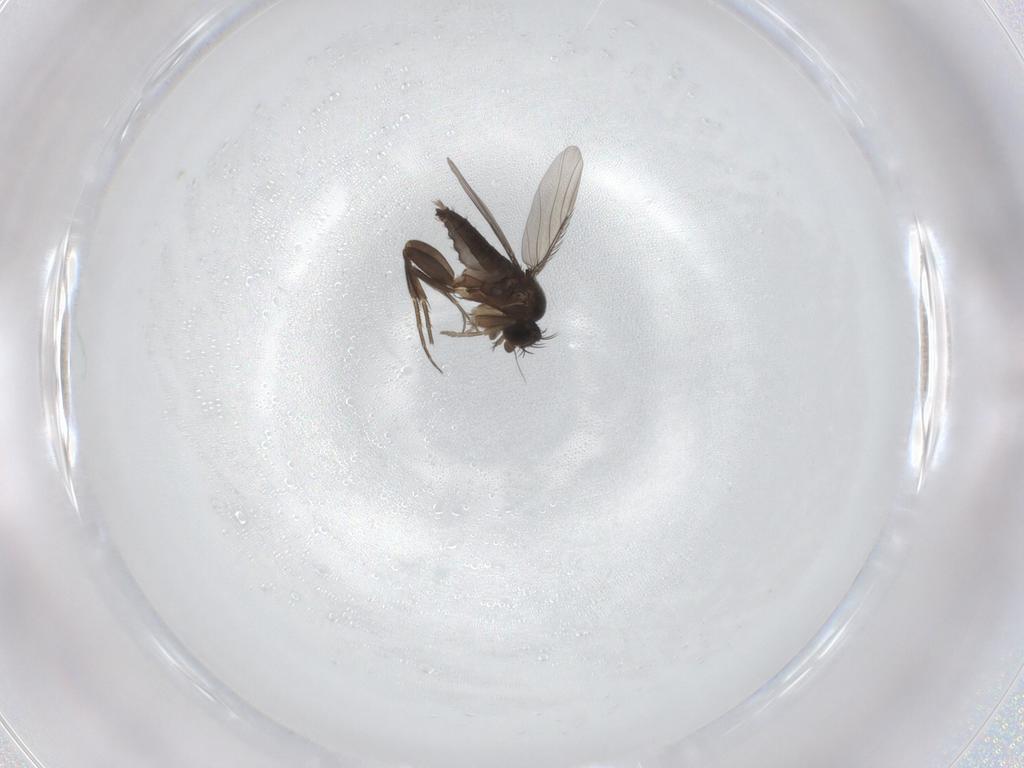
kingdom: Animalia
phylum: Arthropoda
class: Insecta
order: Diptera
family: Phoridae
